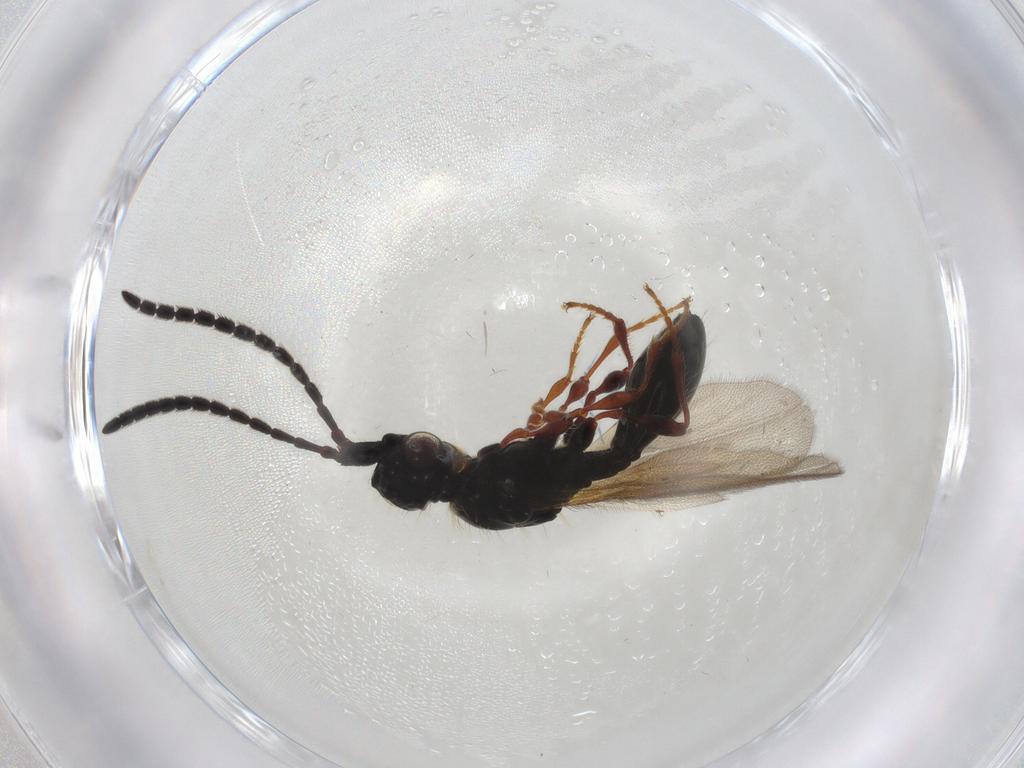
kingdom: Animalia
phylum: Arthropoda
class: Insecta
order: Hymenoptera
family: Diapriidae
